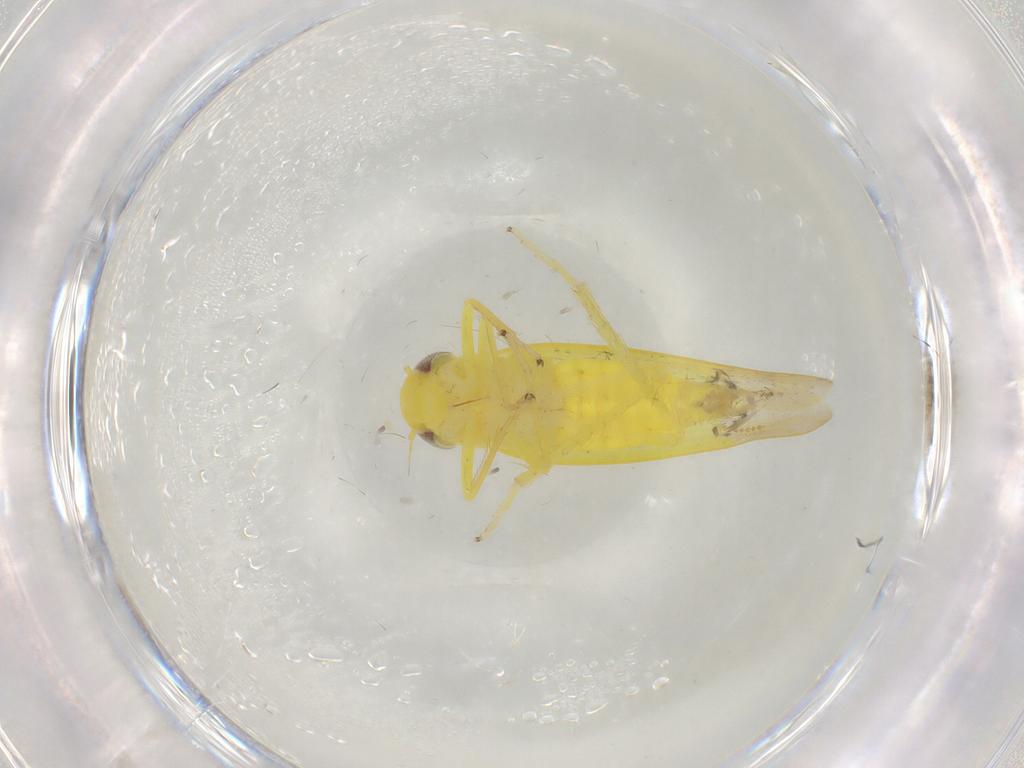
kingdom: Animalia
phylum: Arthropoda
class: Insecta
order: Hemiptera
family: Cicadellidae
